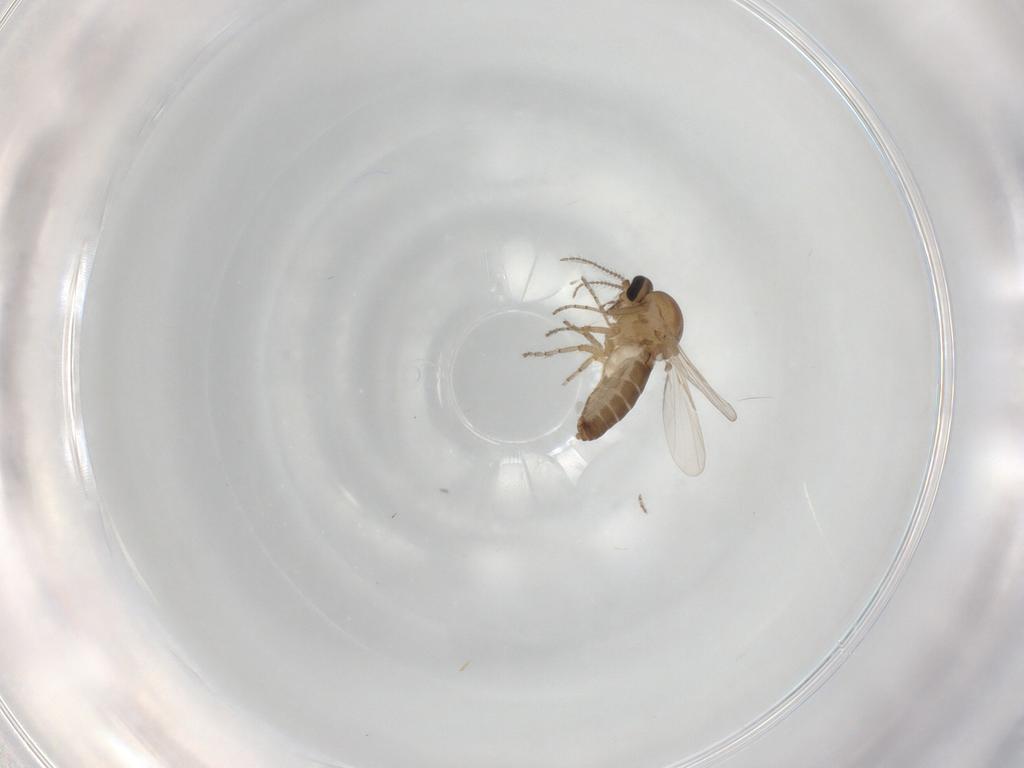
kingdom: Animalia
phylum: Arthropoda
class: Insecta
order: Diptera
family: Ceratopogonidae
